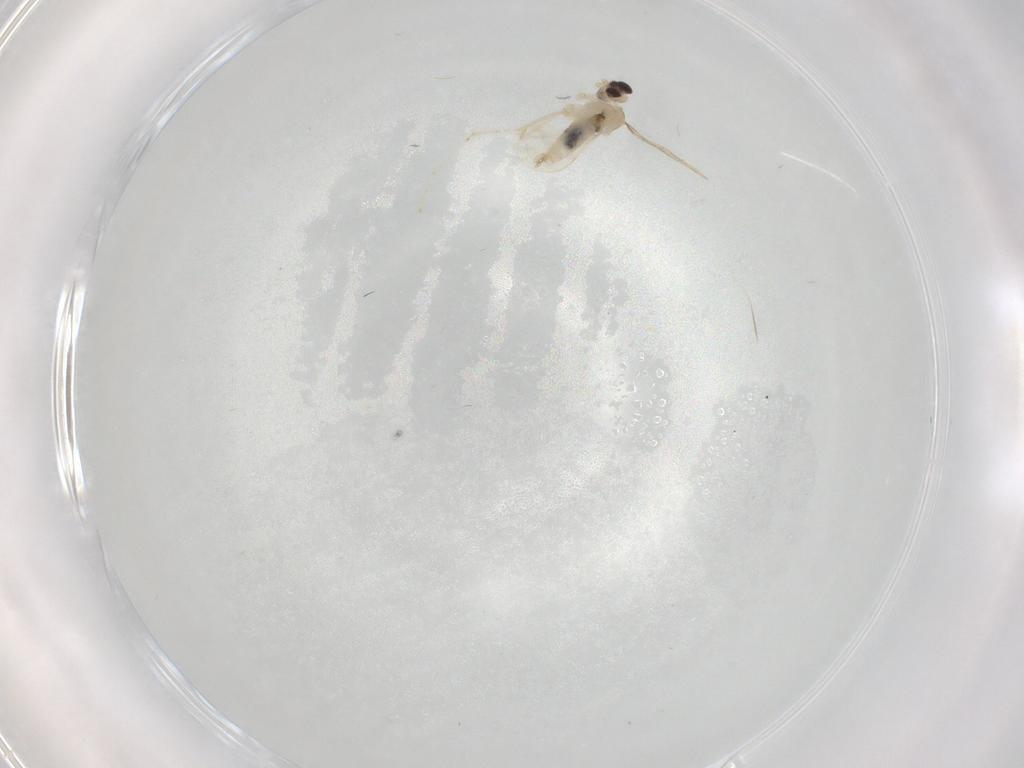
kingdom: Animalia
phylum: Arthropoda
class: Insecta
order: Diptera
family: Cecidomyiidae
